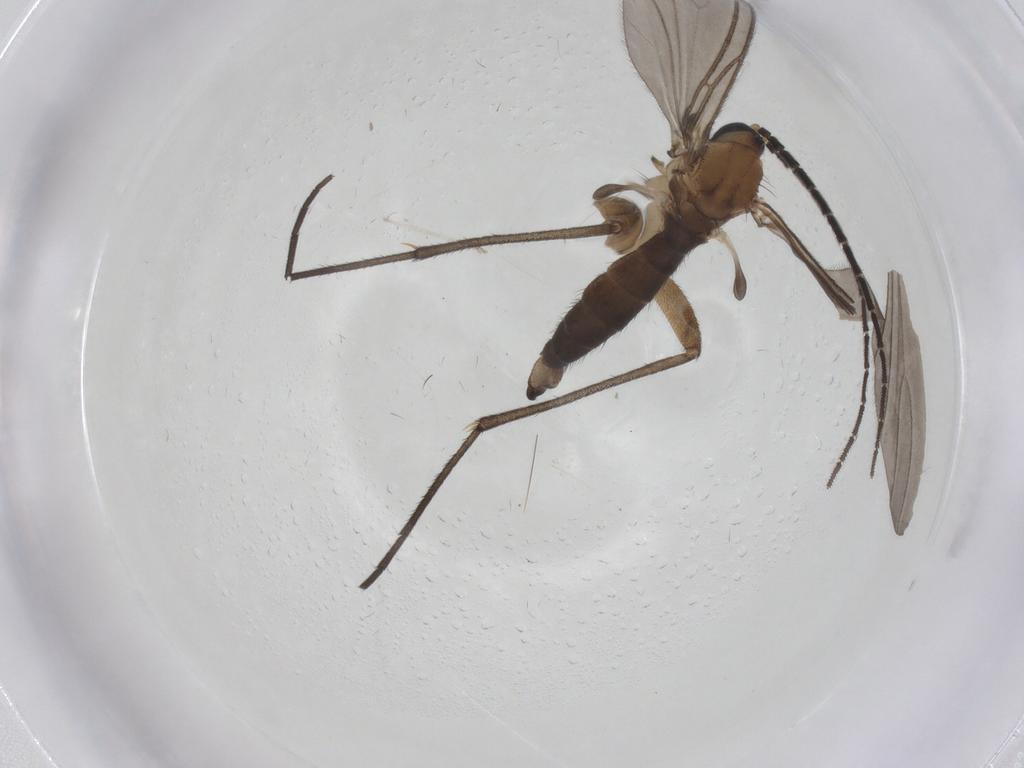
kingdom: Animalia
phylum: Arthropoda
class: Insecta
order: Diptera
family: Sciaridae
